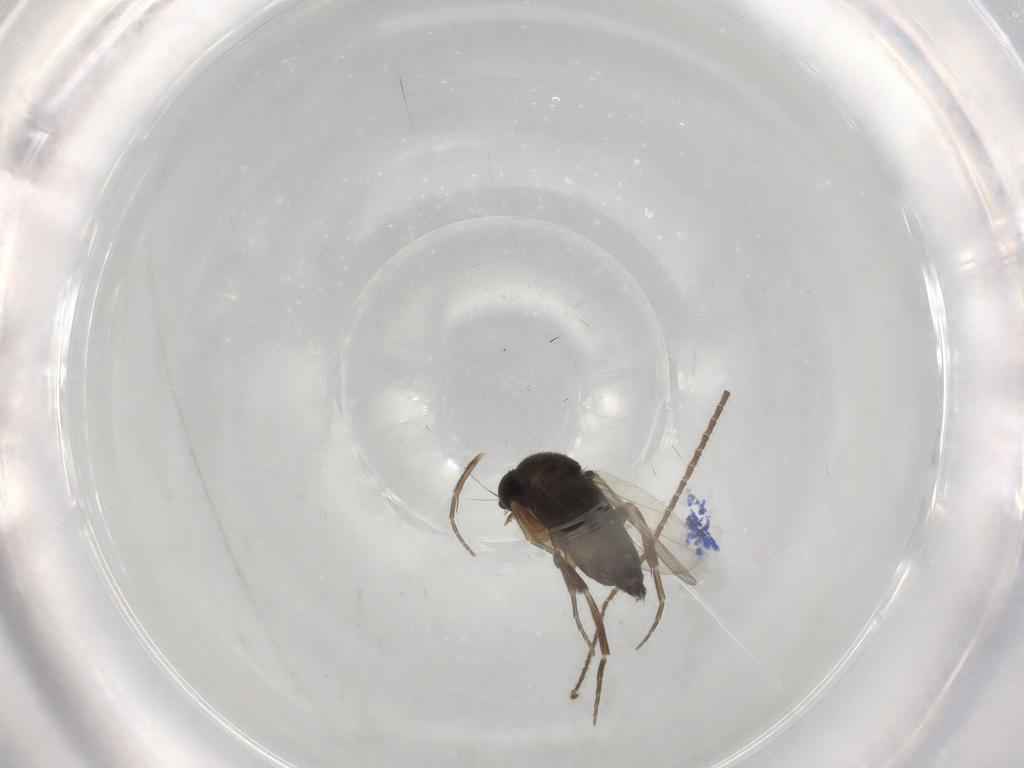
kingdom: Animalia
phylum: Arthropoda
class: Insecta
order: Diptera
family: Phoridae
